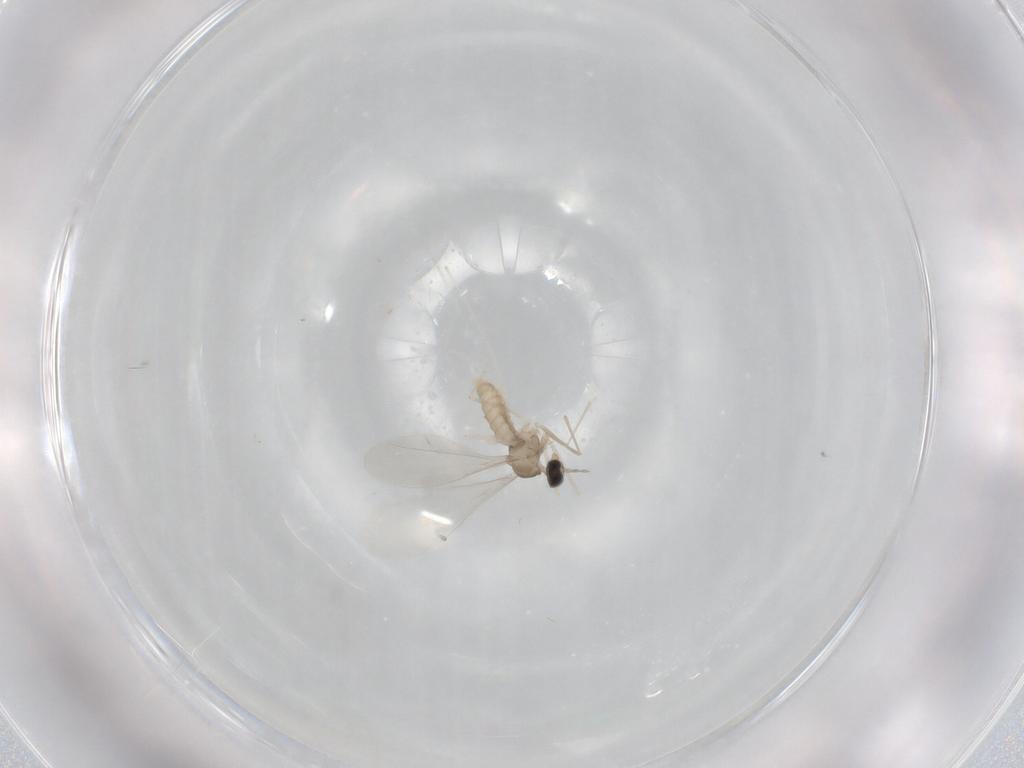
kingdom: Animalia
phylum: Arthropoda
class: Insecta
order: Diptera
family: Cecidomyiidae
